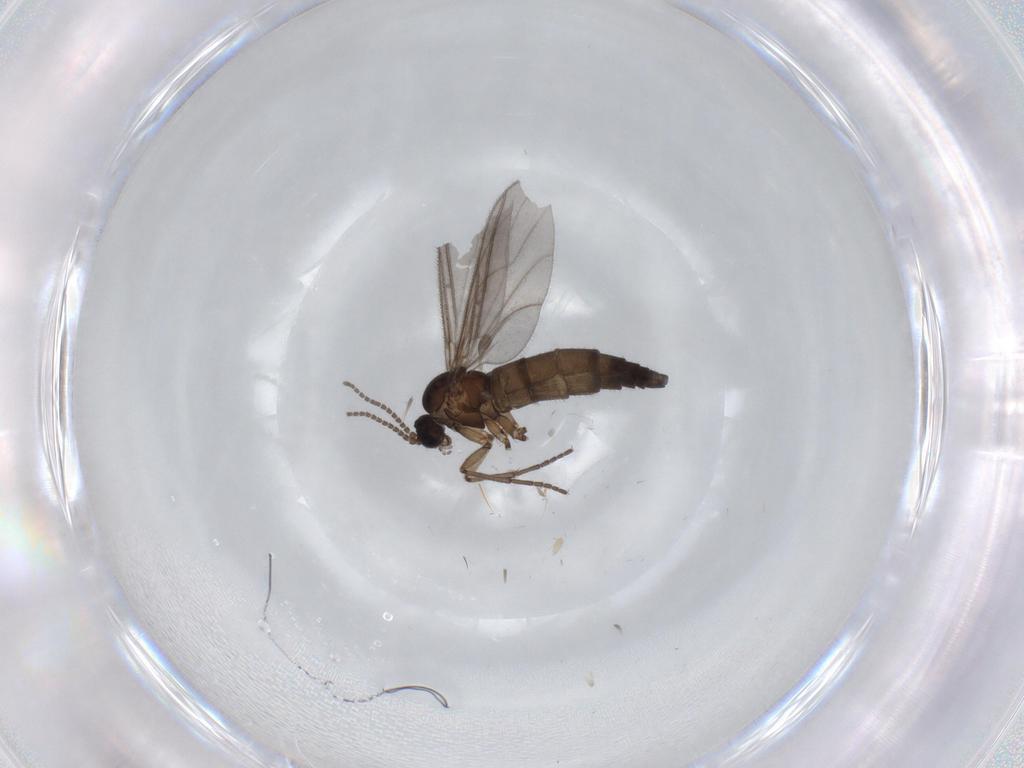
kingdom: Animalia
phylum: Arthropoda
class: Insecta
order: Diptera
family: Sciaridae
